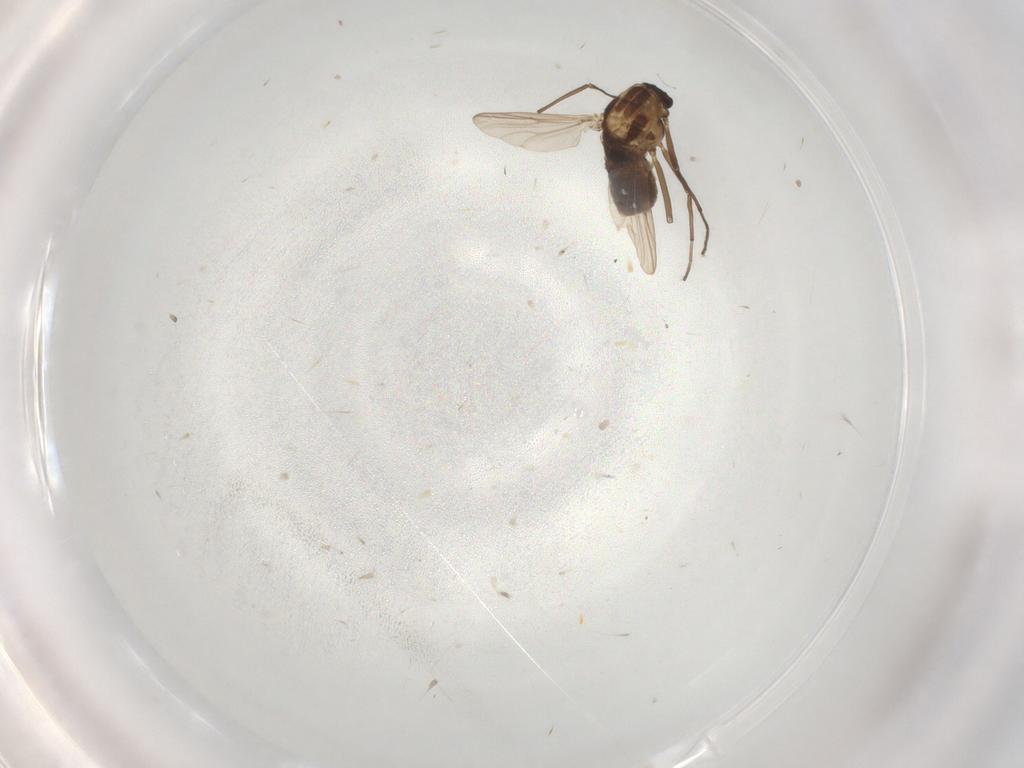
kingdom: Animalia
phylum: Arthropoda
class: Insecta
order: Diptera
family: Chironomidae
